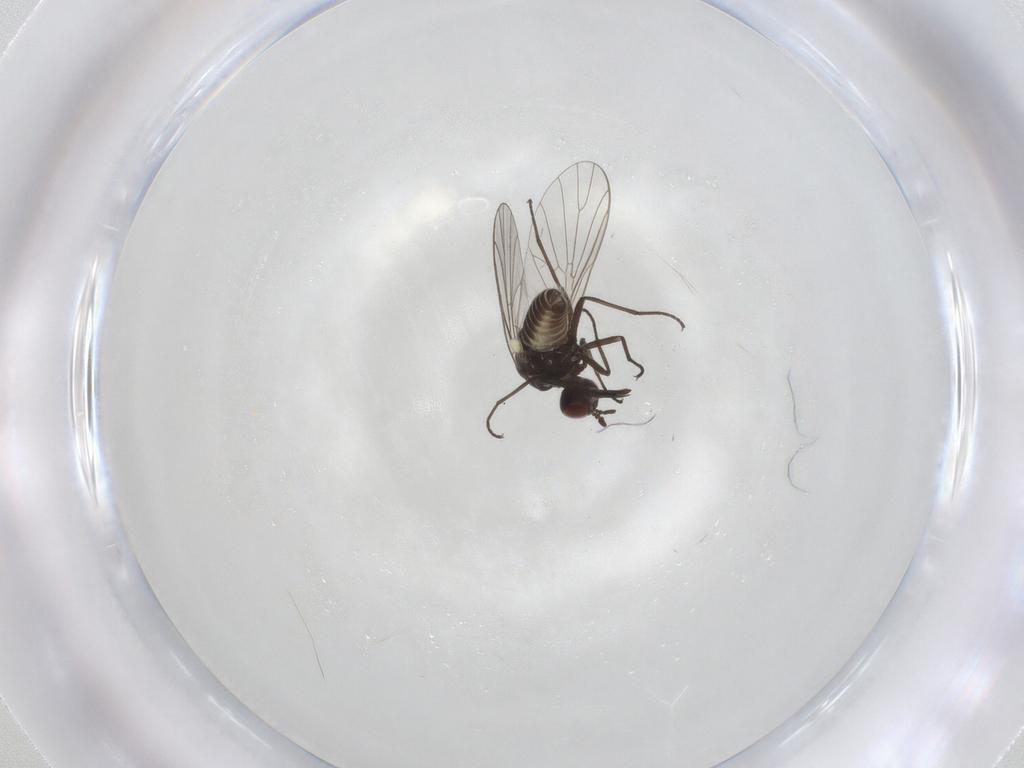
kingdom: Animalia
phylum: Arthropoda
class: Insecta
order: Diptera
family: Bombyliidae
